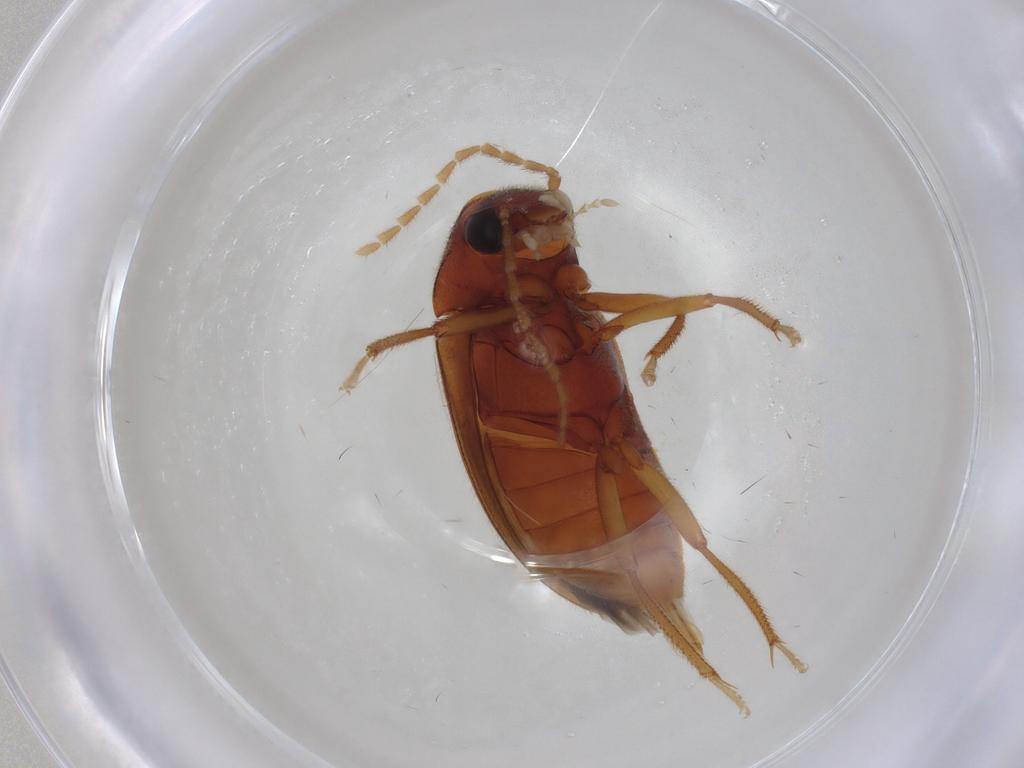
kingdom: Animalia
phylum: Arthropoda
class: Insecta
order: Coleoptera
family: Ptilodactylidae
